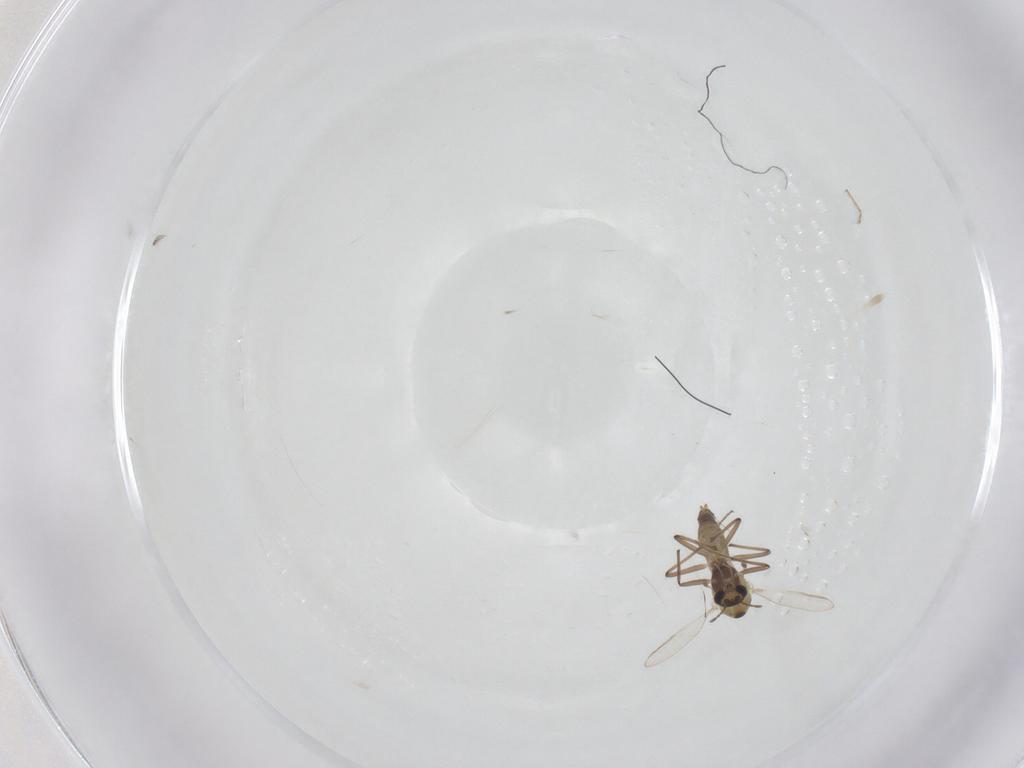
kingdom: Animalia
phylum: Arthropoda
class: Insecta
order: Diptera
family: Chironomidae
